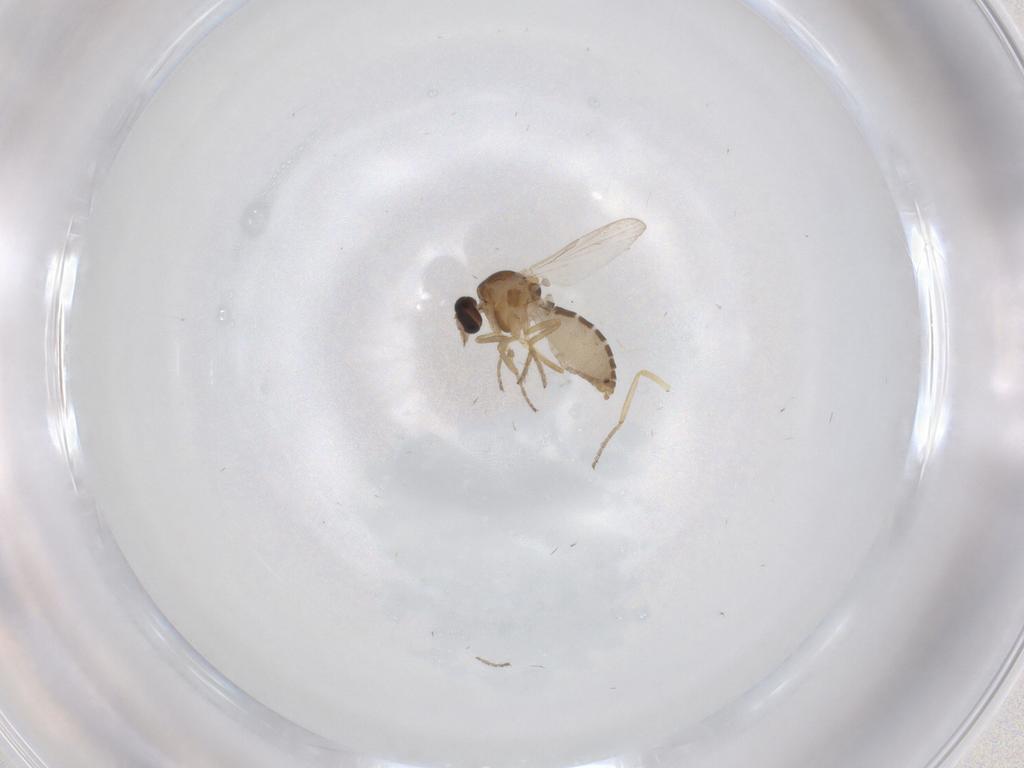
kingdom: Animalia
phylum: Arthropoda
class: Insecta
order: Diptera
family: Ceratopogonidae
